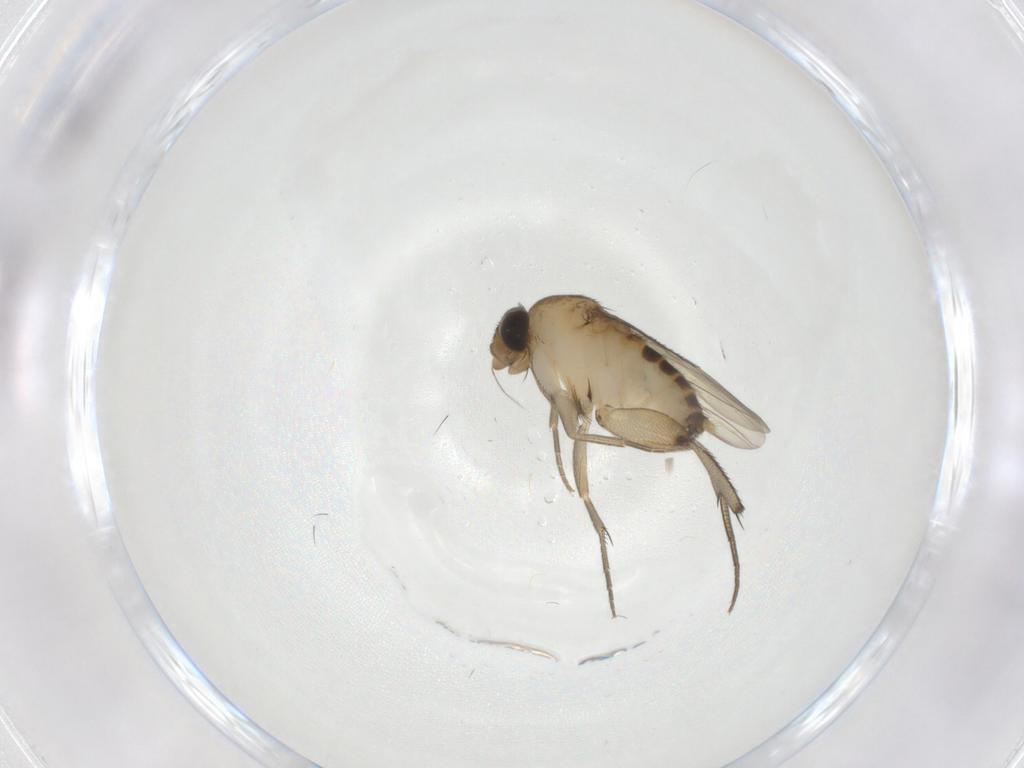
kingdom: Animalia
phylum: Arthropoda
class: Insecta
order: Diptera
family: Phoridae
